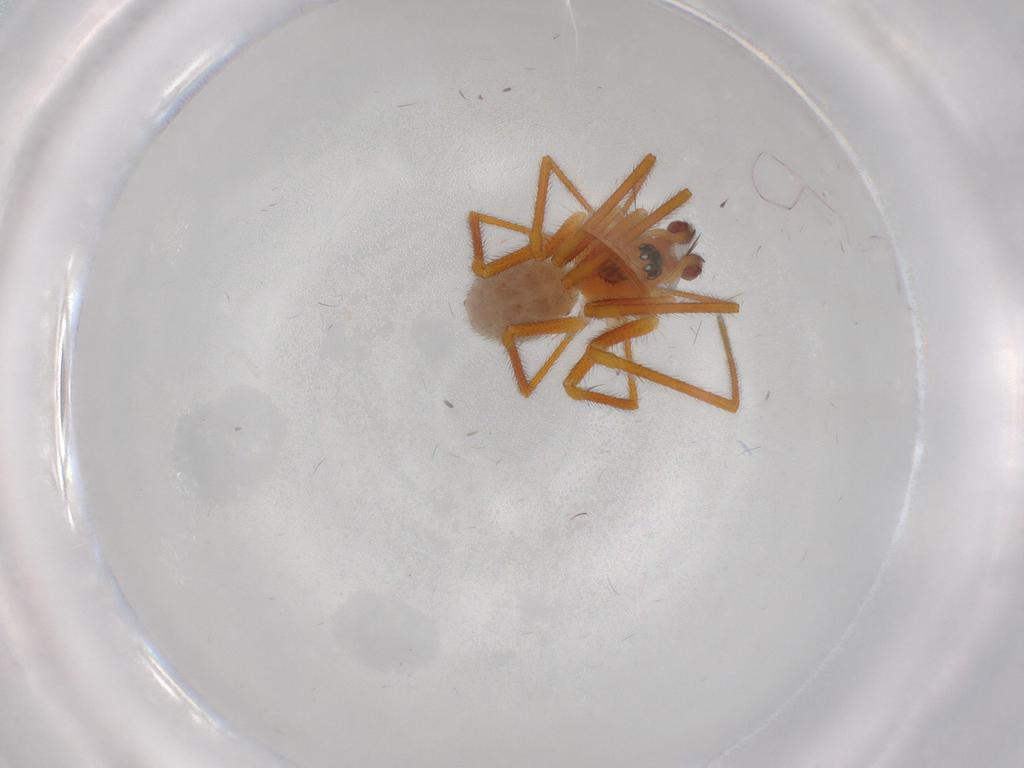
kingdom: Animalia
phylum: Arthropoda
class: Arachnida
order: Araneae
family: Linyphiidae
